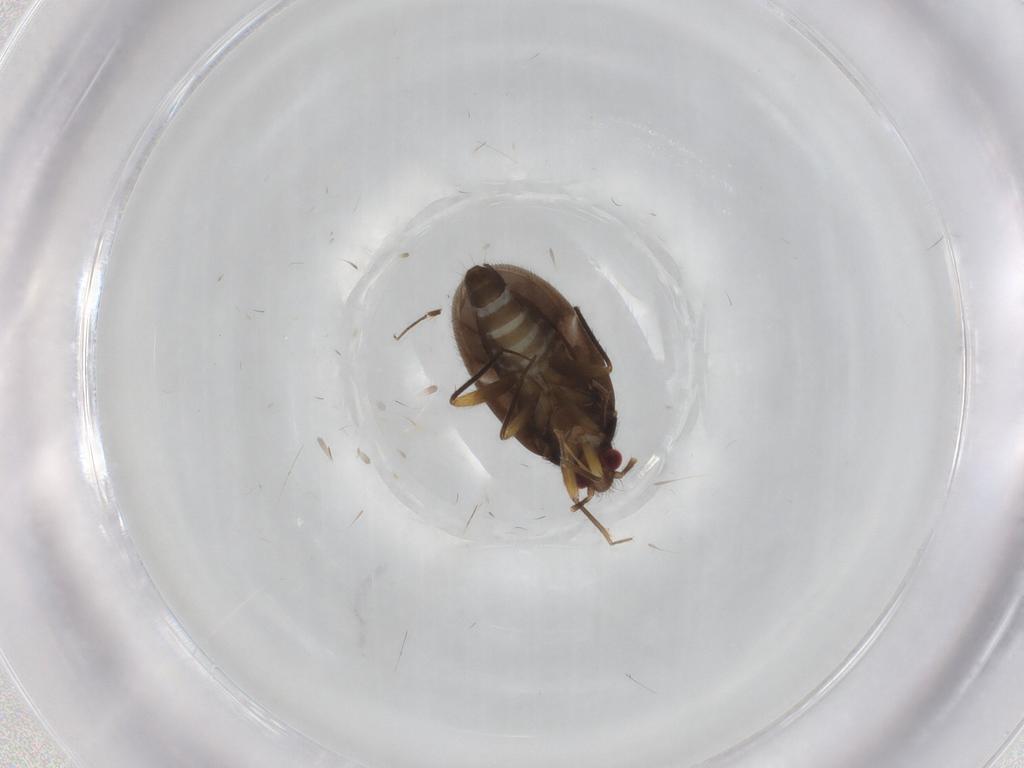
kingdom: Animalia
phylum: Arthropoda
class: Insecta
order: Hemiptera
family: Ceratocombidae
